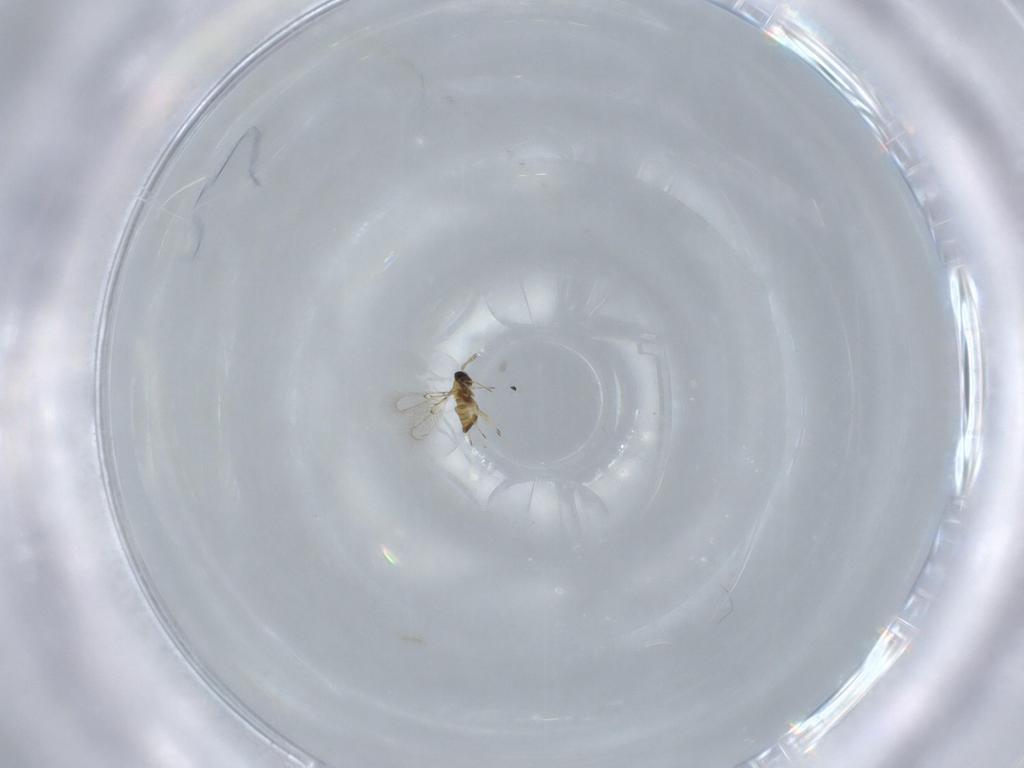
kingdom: Animalia
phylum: Arthropoda
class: Insecta
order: Hymenoptera
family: Trichogrammatidae
